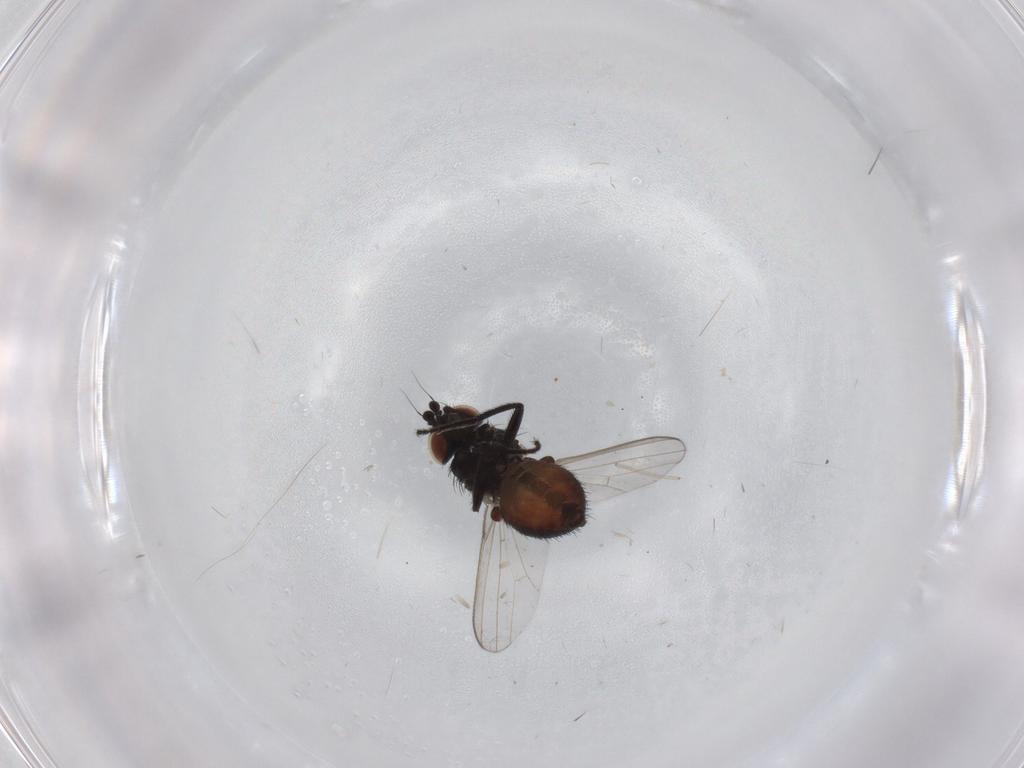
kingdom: Animalia
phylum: Arthropoda
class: Insecta
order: Diptera
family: Milichiidae
